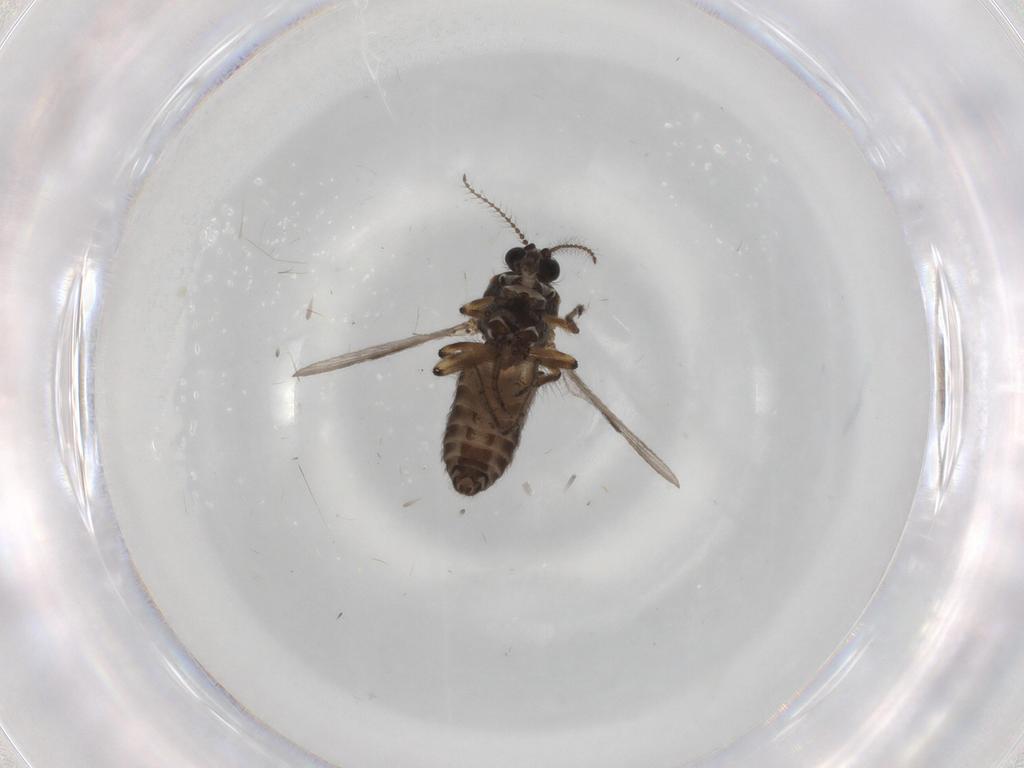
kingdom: Animalia
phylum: Arthropoda
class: Insecta
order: Diptera
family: Ceratopogonidae
